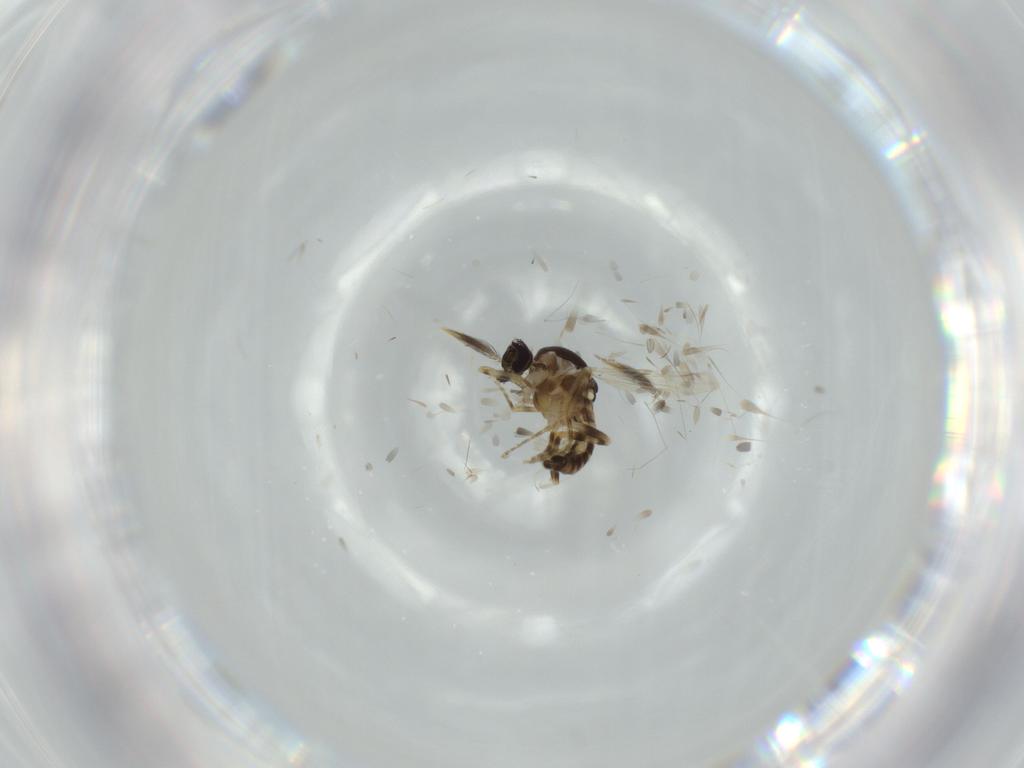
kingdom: Animalia
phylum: Arthropoda
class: Insecta
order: Diptera
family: Ceratopogonidae
